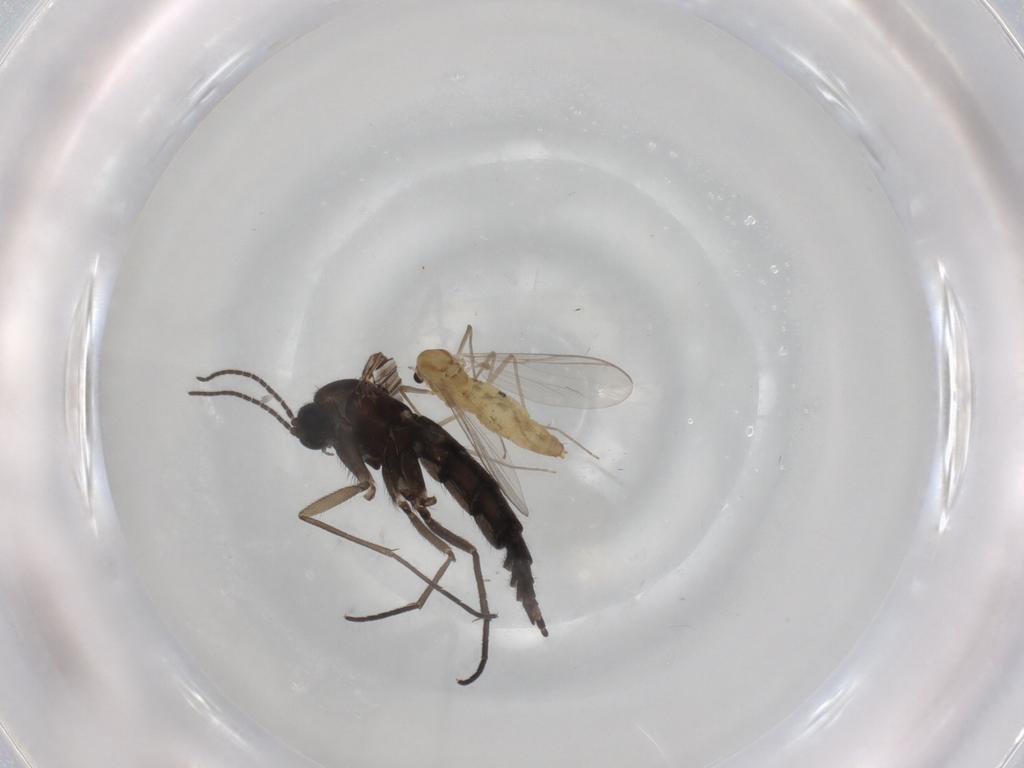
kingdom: Animalia
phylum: Arthropoda
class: Insecta
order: Diptera
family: Sciaridae
